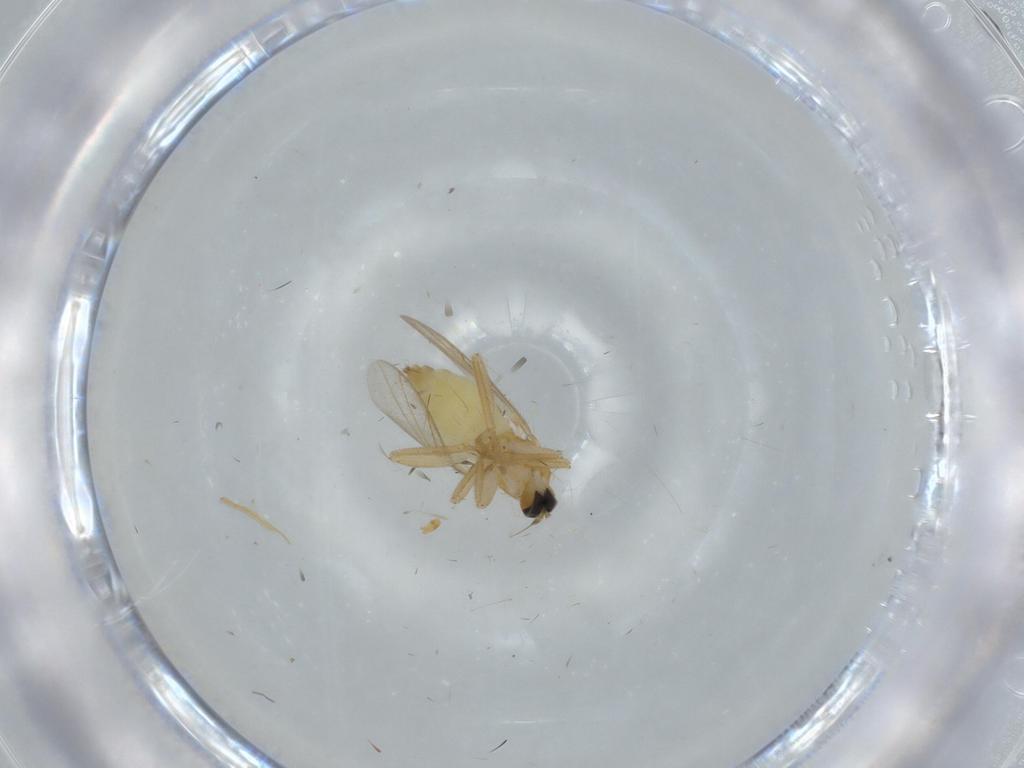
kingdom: Animalia
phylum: Arthropoda
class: Insecta
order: Diptera
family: Hybotidae
